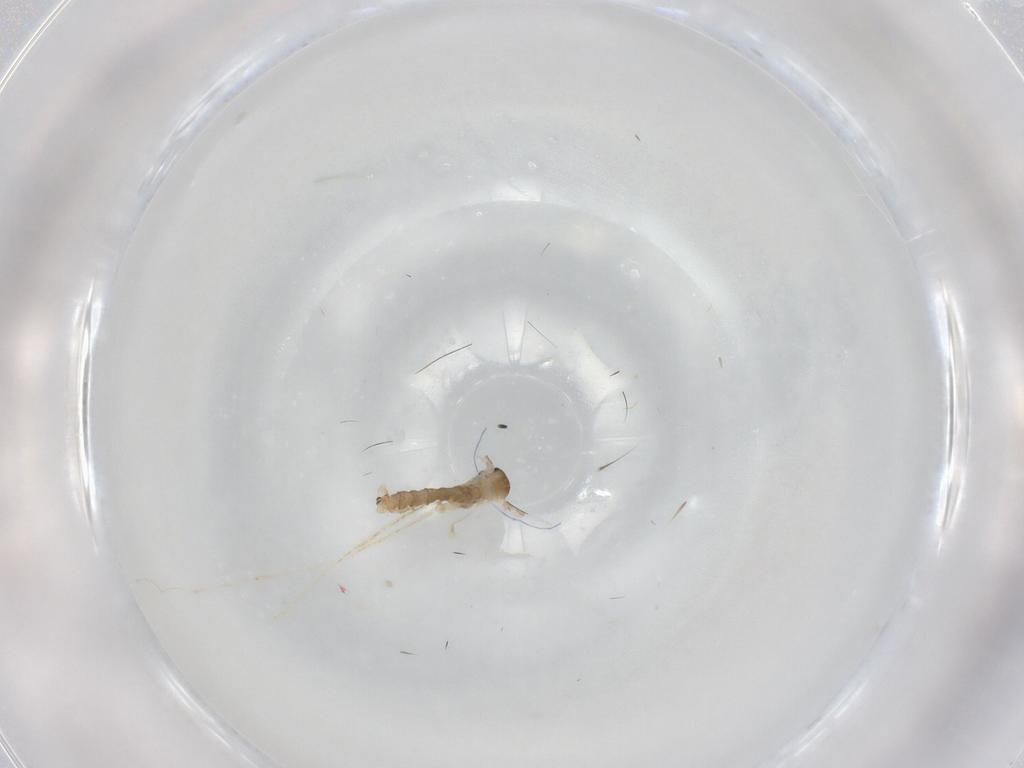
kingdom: Animalia
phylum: Arthropoda
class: Insecta
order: Diptera
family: Cecidomyiidae
